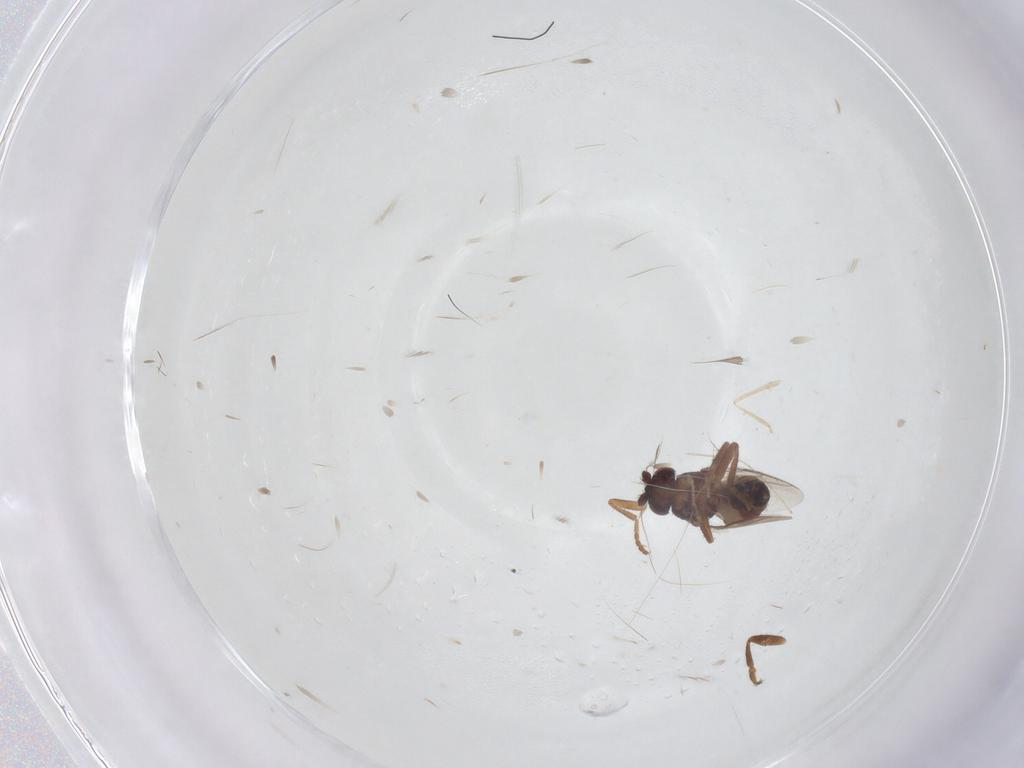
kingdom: Animalia
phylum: Arthropoda
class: Insecta
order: Diptera
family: Sphaeroceridae
